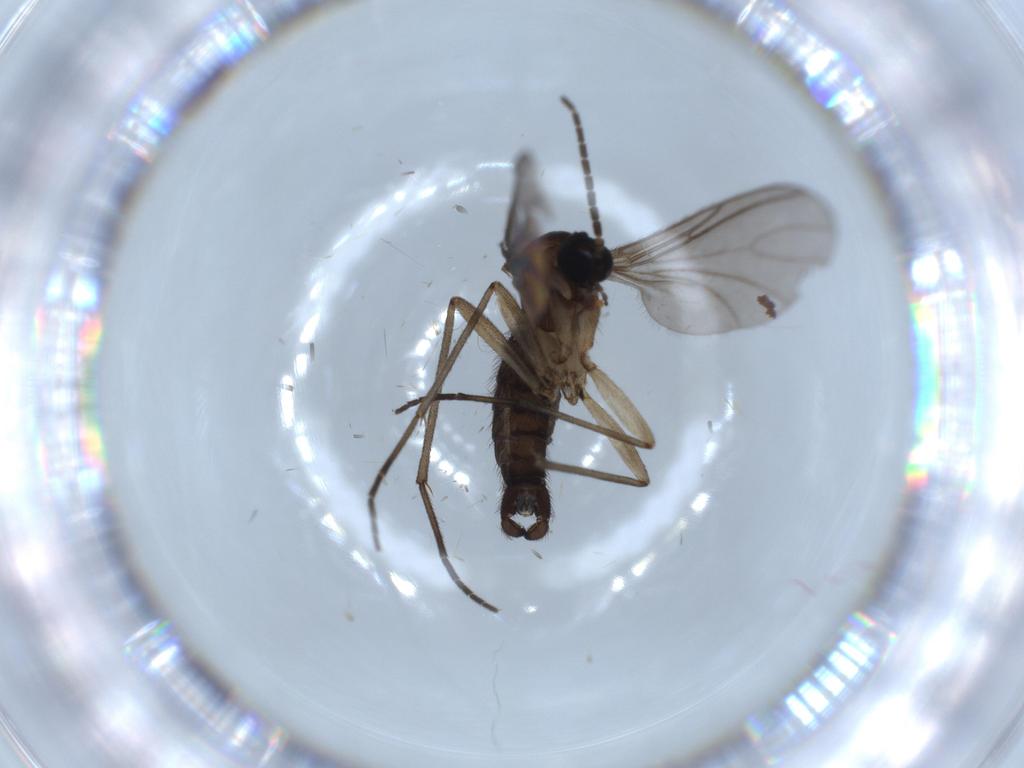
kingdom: Animalia
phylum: Arthropoda
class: Insecta
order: Diptera
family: Sciaridae
